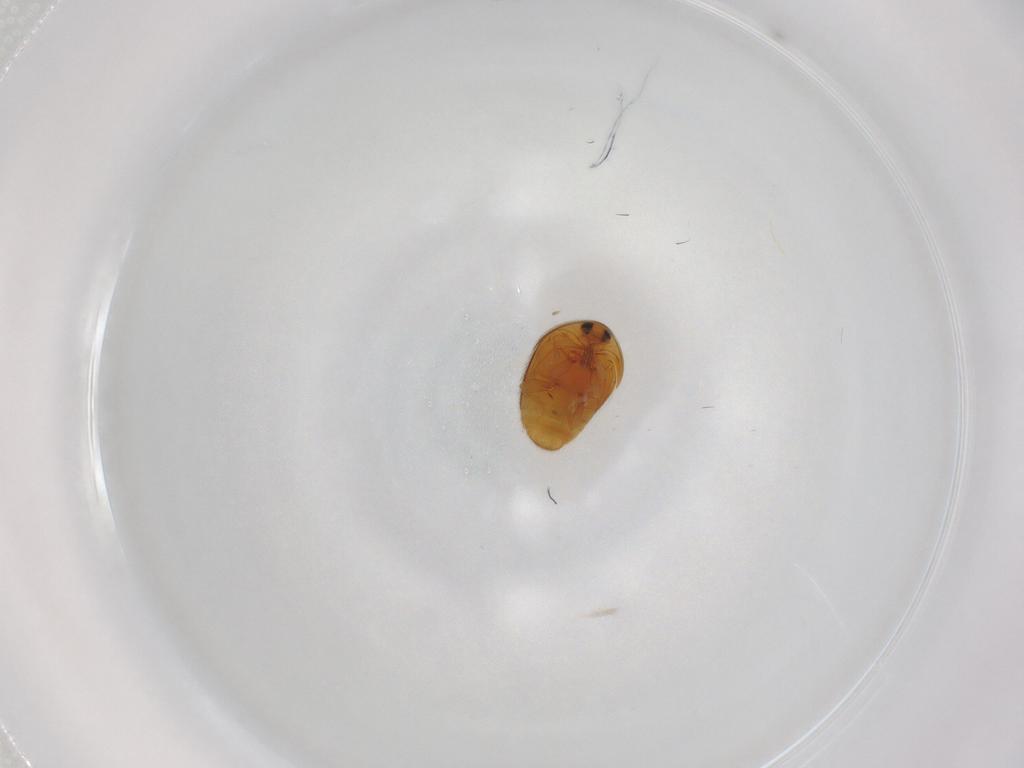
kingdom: Animalia
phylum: Arthropoda
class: Insecta
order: Coleoptera
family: Corylophidae
